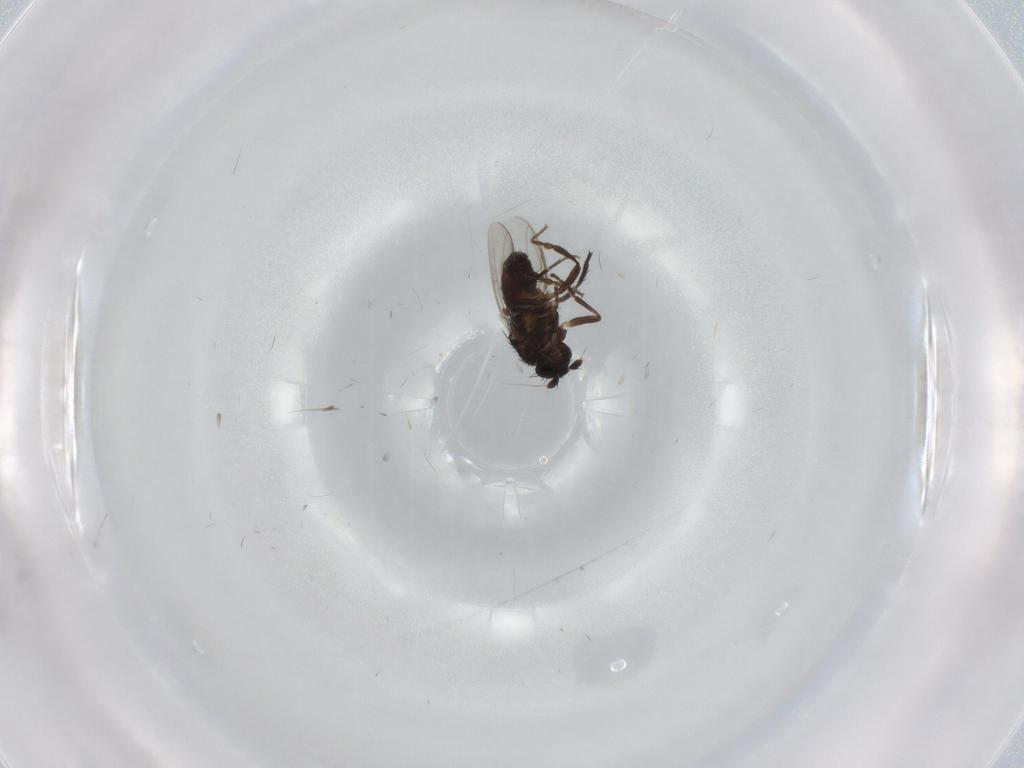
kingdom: Animalia
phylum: Arthropoda
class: Insecta
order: Diptera
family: Sphaeroceridae
